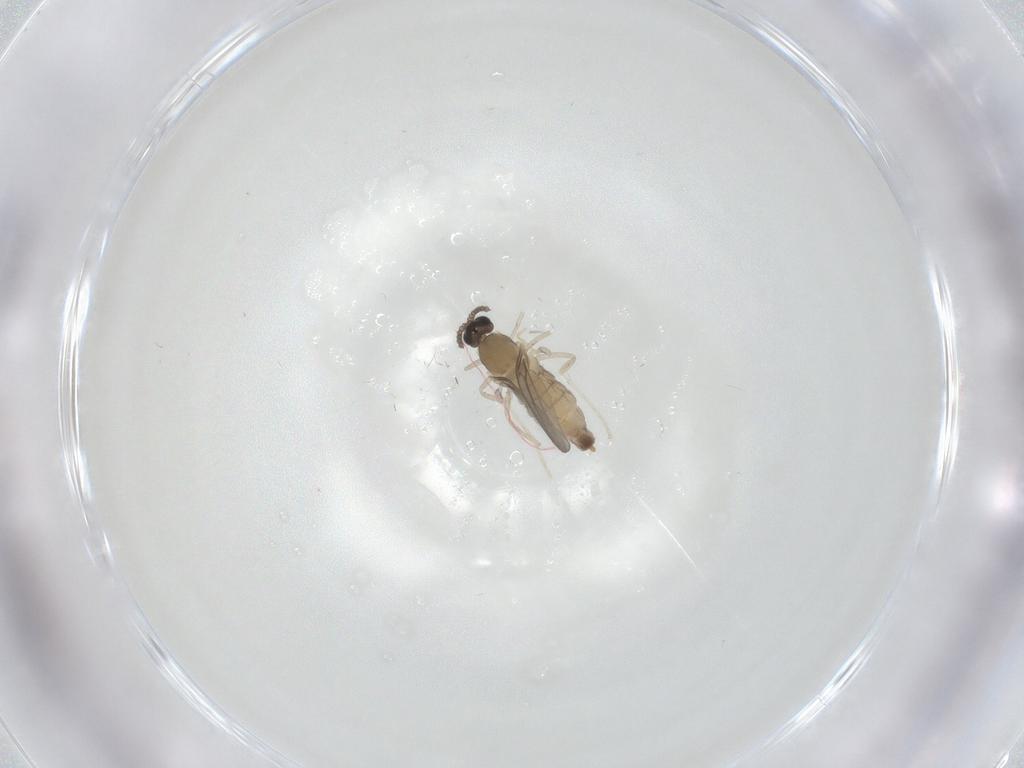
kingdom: Animalia
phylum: Arthropoda
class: Insecta
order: Diptera
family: Cecidomyiidae
